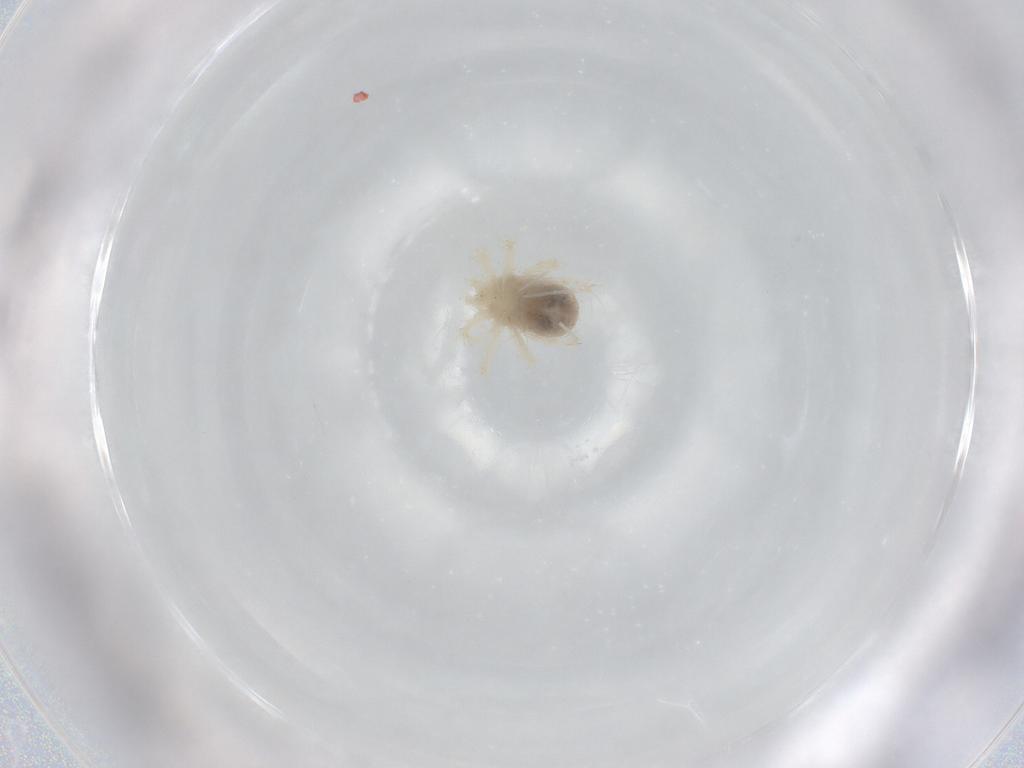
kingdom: Animalia
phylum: Arthropoda
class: Arachnida
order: Trombidiformes
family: Anystidae
